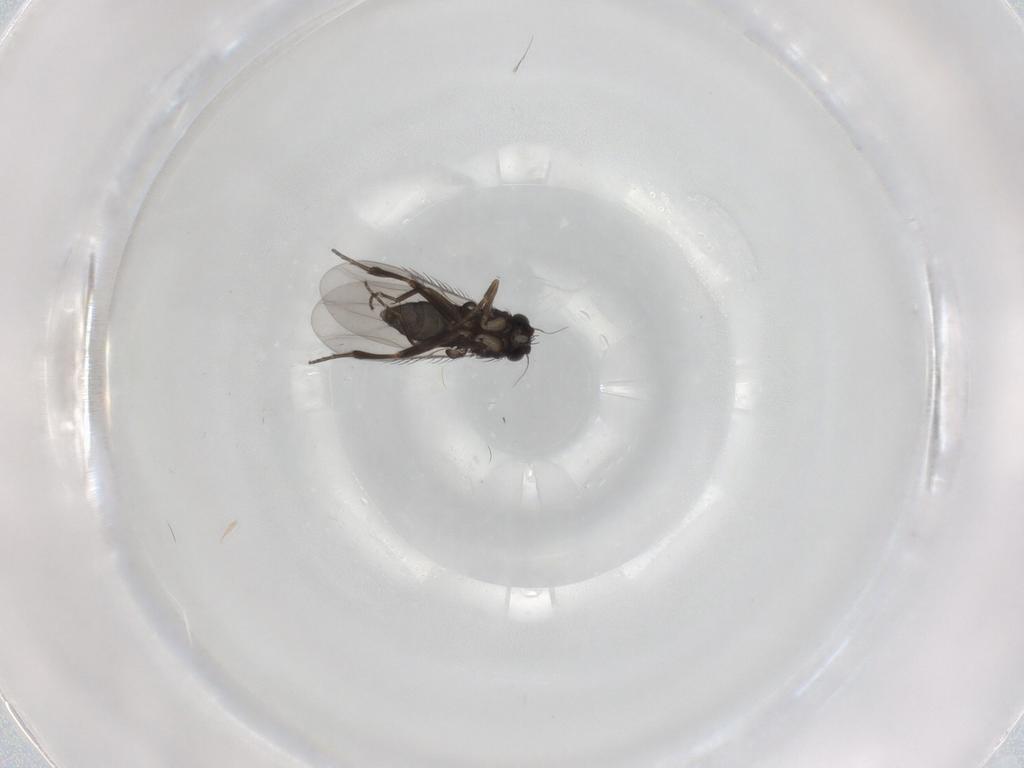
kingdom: Animalia
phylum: Arthropoda
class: Insecta
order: Diptera
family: Phoridae
